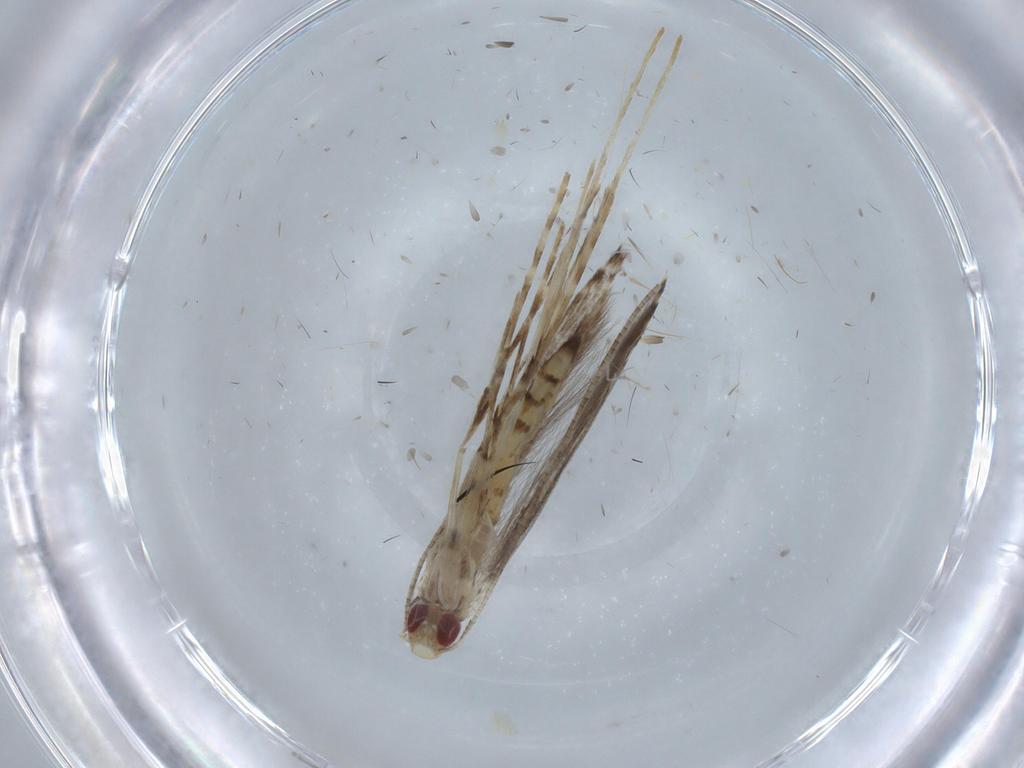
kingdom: Animalia
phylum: Arthropoda
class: Insecta
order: Lepidoptera
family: Gracillariidae
